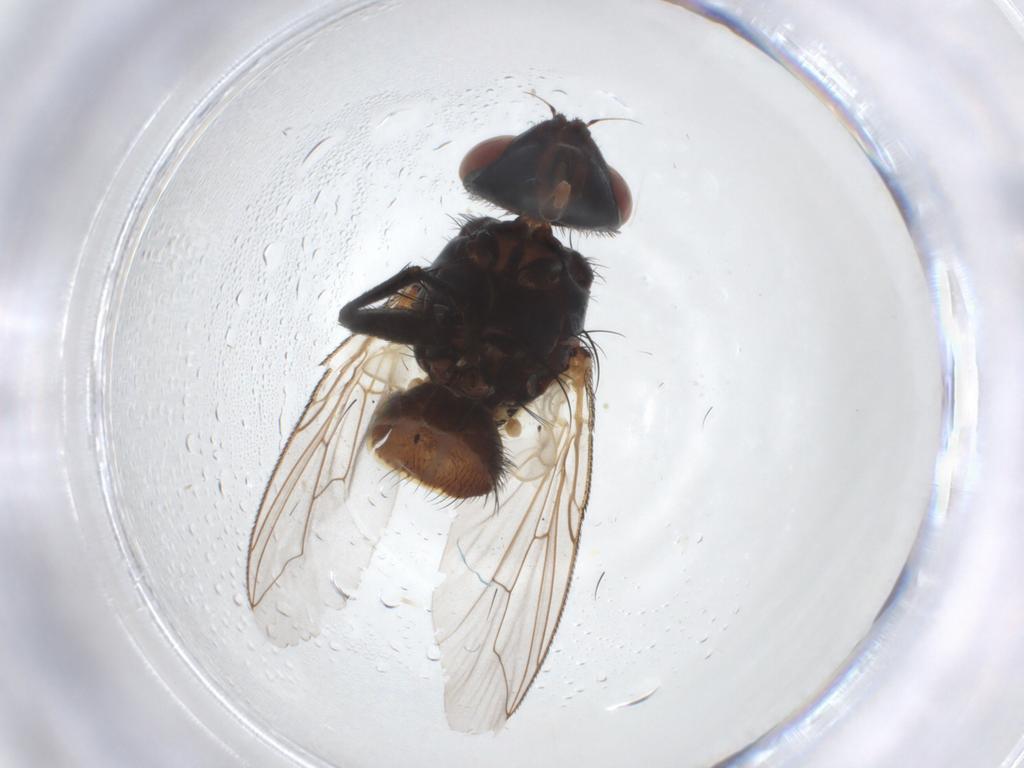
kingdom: Animalia
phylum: Arthropoda
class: Insecta
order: Diptera
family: Sarcophagidae
